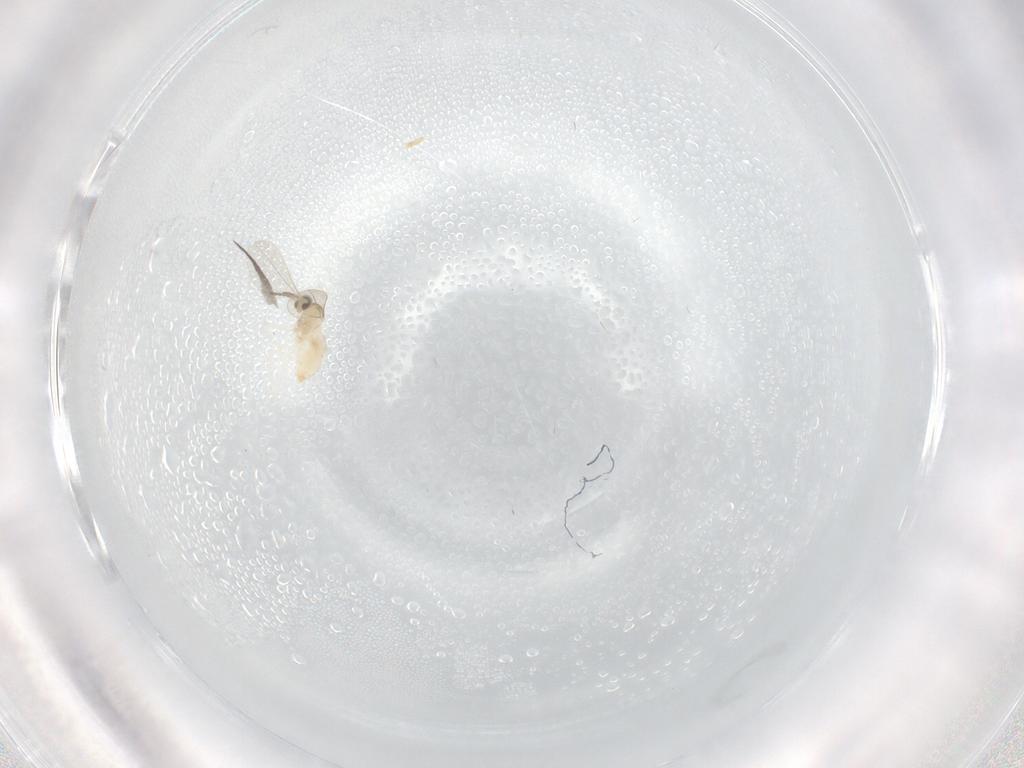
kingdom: Animalia
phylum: Arthropoda
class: Insecta
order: Diptera
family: Cecidomyiidae
